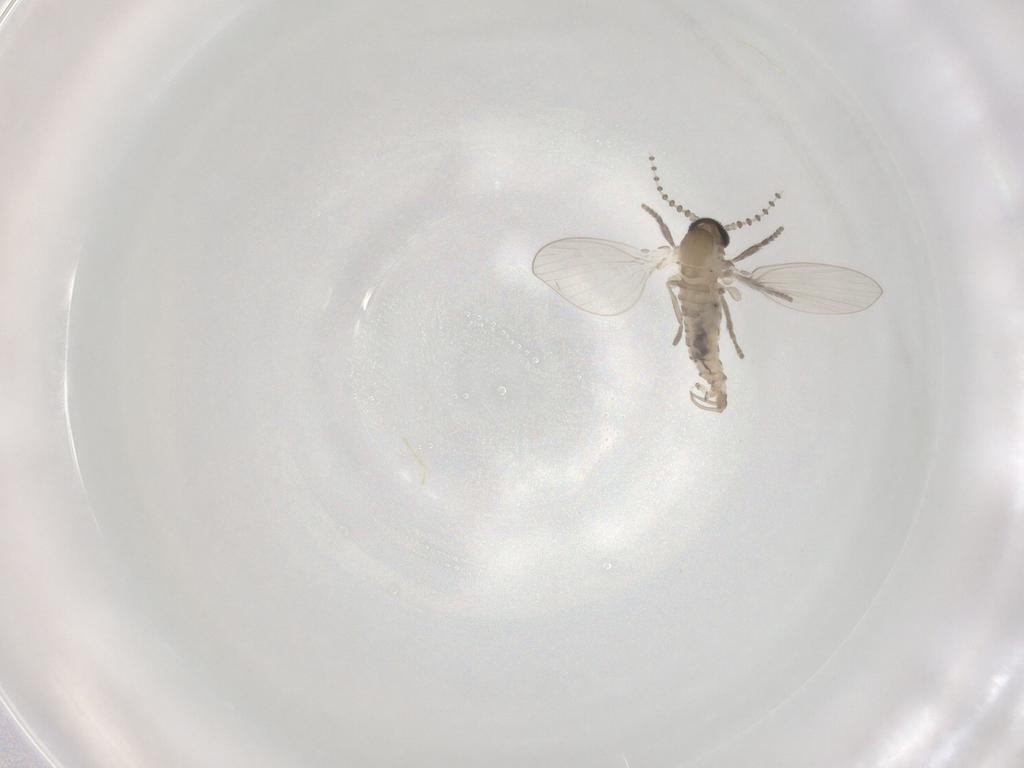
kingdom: Animalia
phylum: Arthropoda
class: Insecta
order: Diptera
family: Psychodidae
